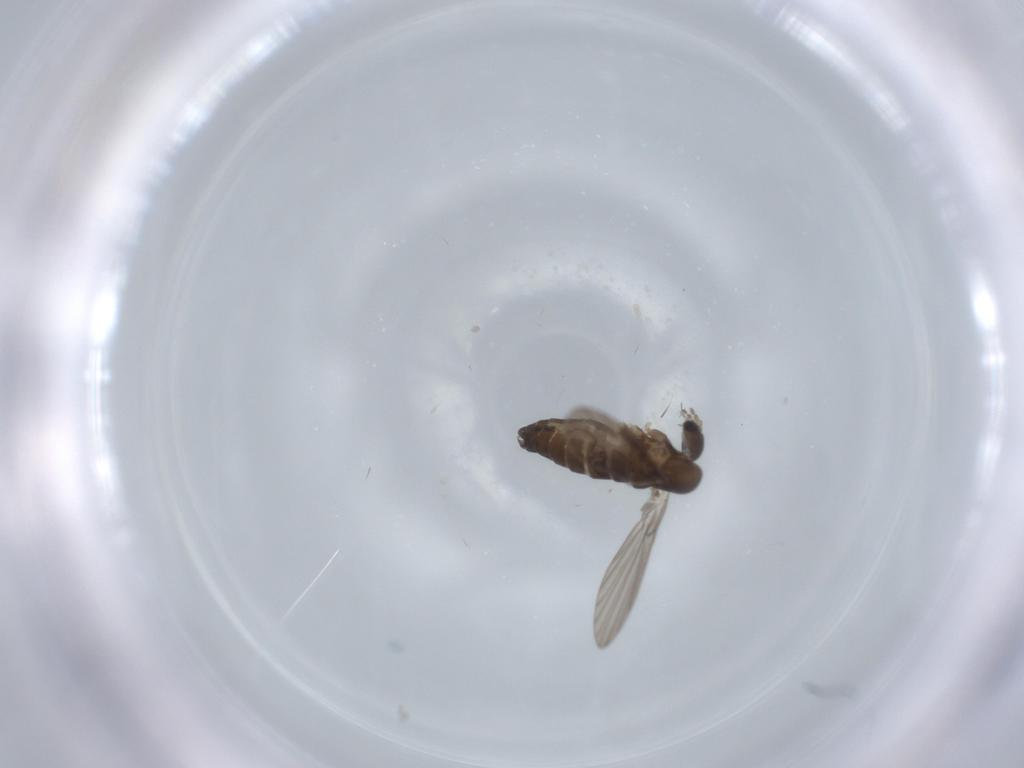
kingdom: Animalia
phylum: Arthropoda
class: Insecta
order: Diptera
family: Psychodidae
